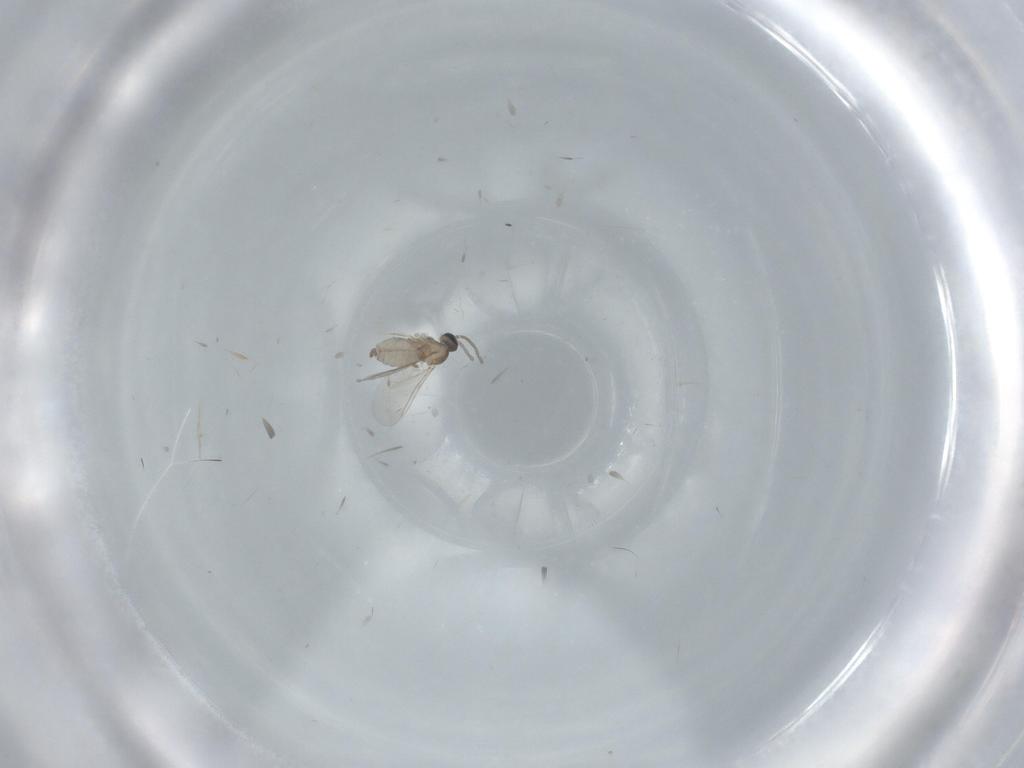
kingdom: Animalia
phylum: Arthropoda
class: Insecta
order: Diptera
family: Cecidomyiidae
